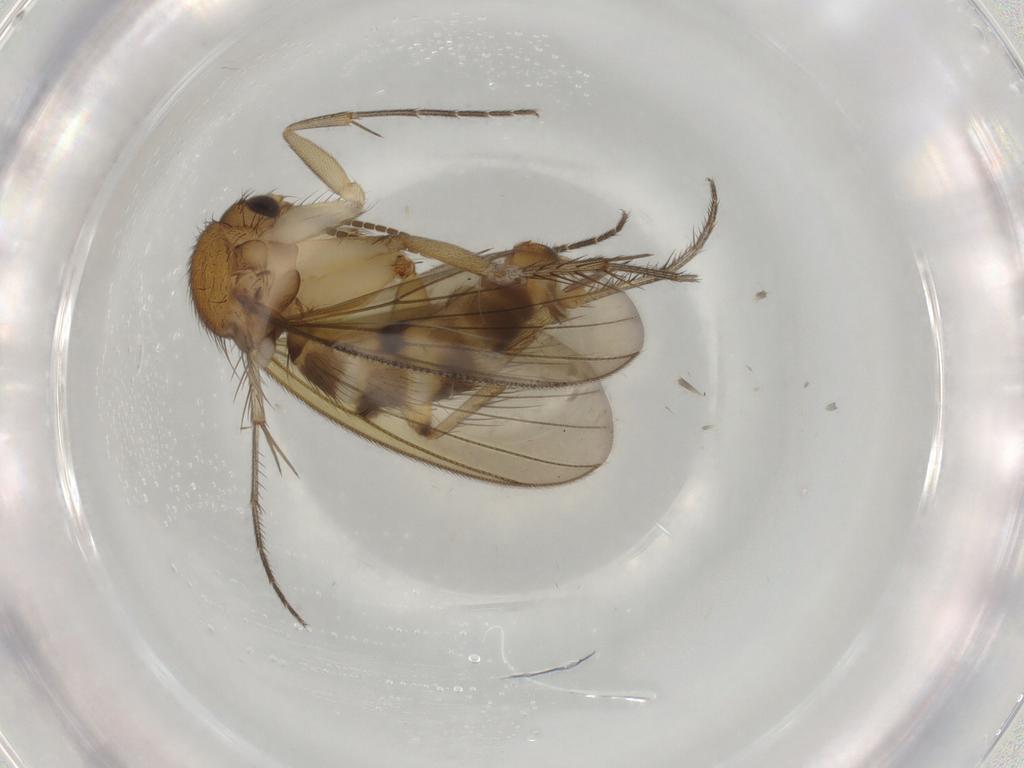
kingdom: Animalia
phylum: Arthropoda
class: Insecta
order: Diptera
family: Mycetophilidae
